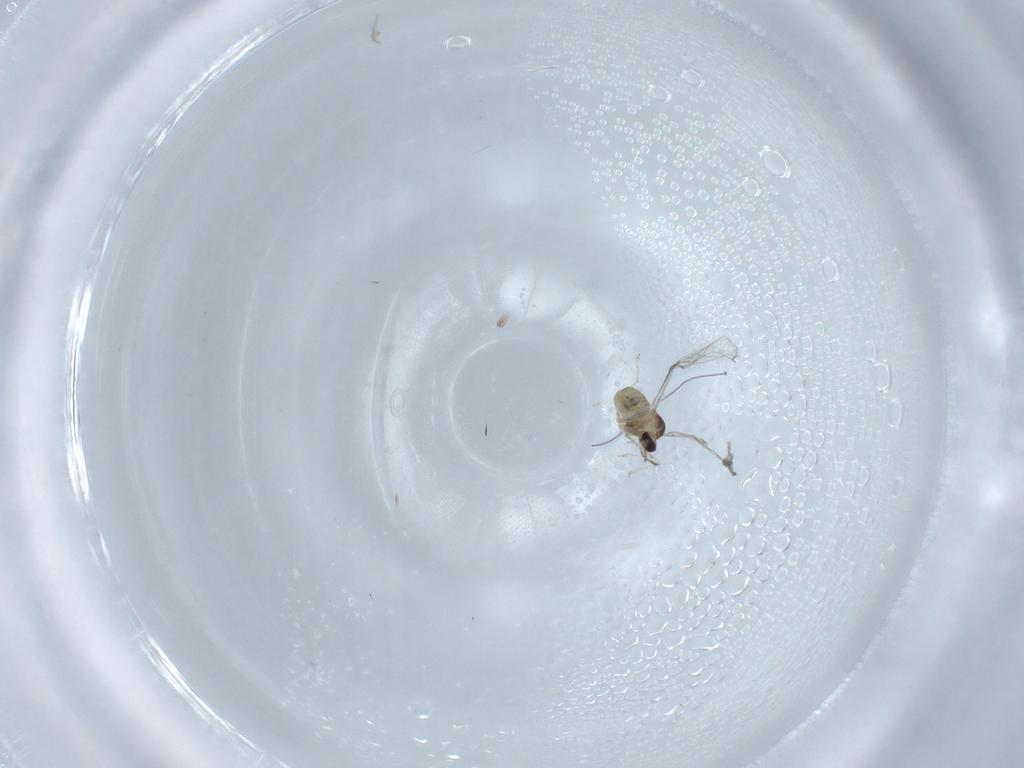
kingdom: Animalia
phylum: Arthropoda
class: Insecta
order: Diptera
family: Cecidomyiidae
